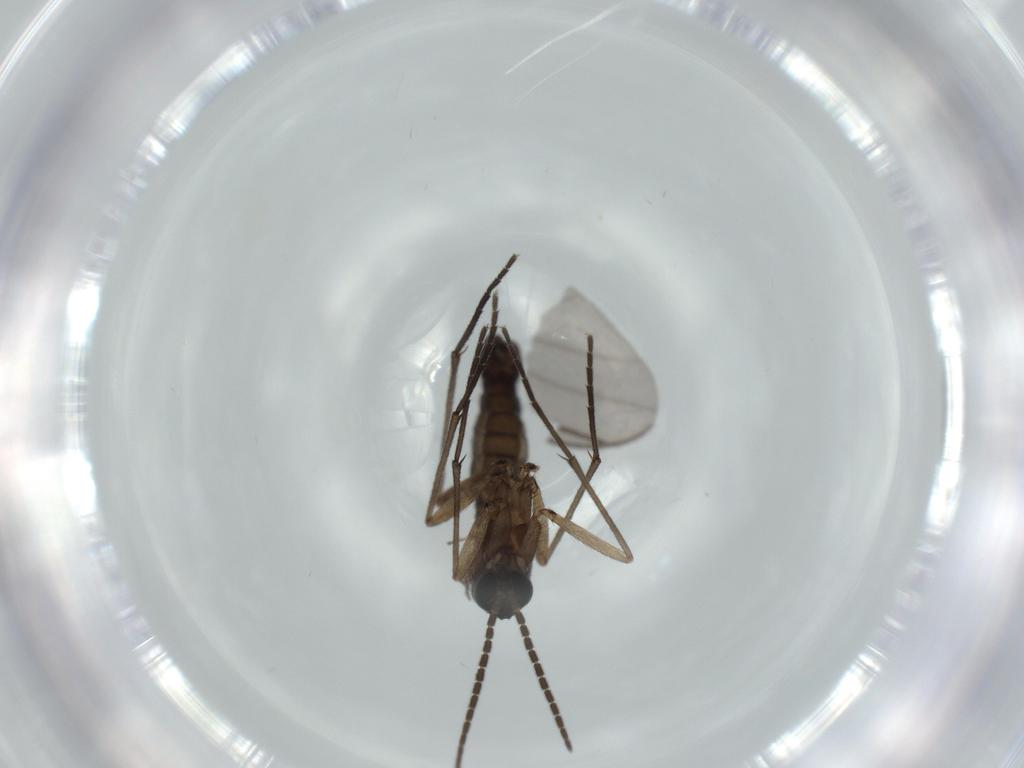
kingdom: Animalia
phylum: Arthropoda
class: Insecta
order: Diptera
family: Sciaridae
